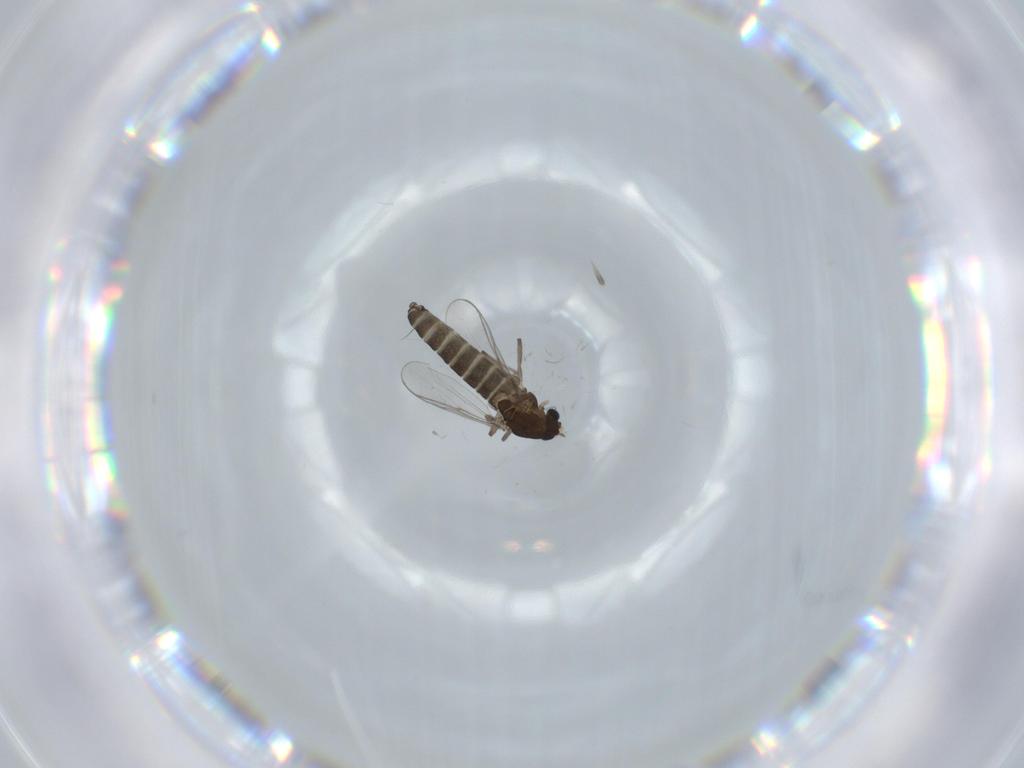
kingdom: Animalia
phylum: Arthropoda
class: Insecta
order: Diptera
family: Chironomidae
